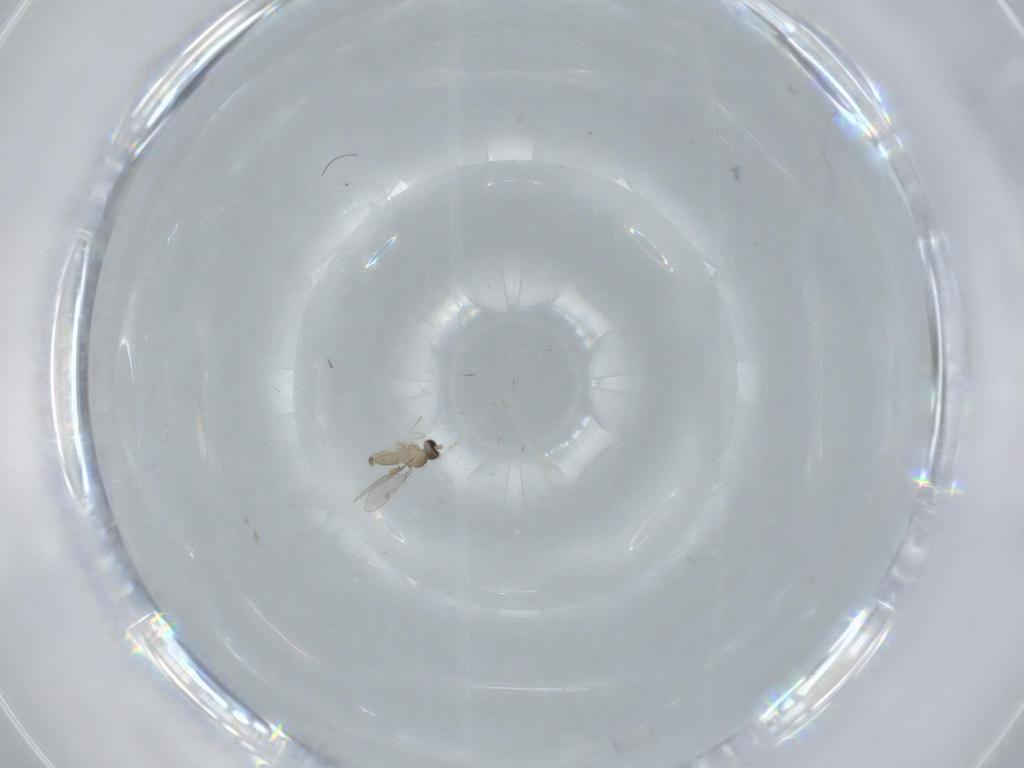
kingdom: Animalia
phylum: Arthropoda
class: Insecta
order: Diptera
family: Cecidomyiidae
